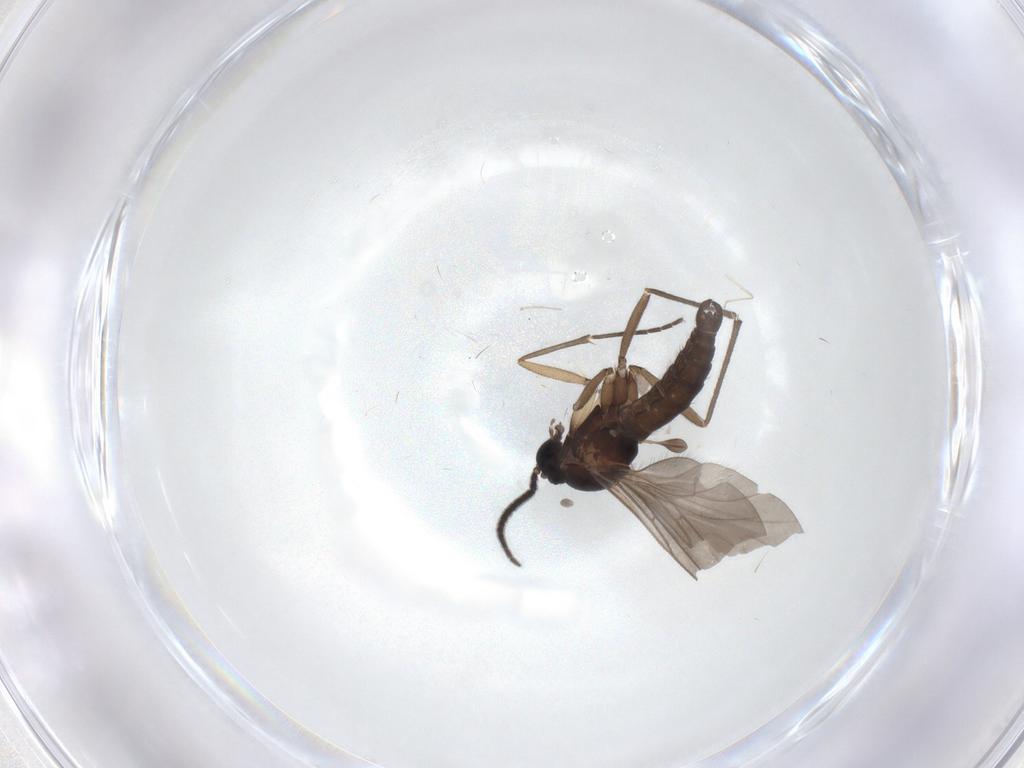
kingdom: Animalia
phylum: Arthropoda
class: Insecta
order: Diptera
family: Sciaridae
